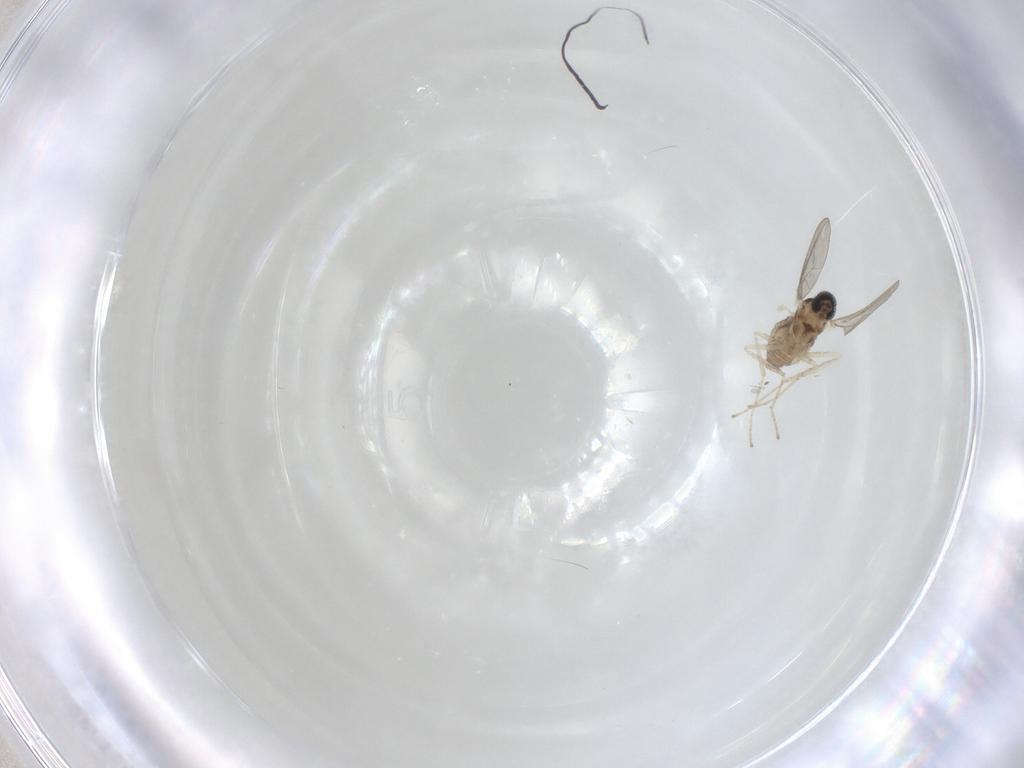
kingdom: Animalia
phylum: Arthropoda
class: Insecta
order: Diptera
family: Cecidomyiidae
